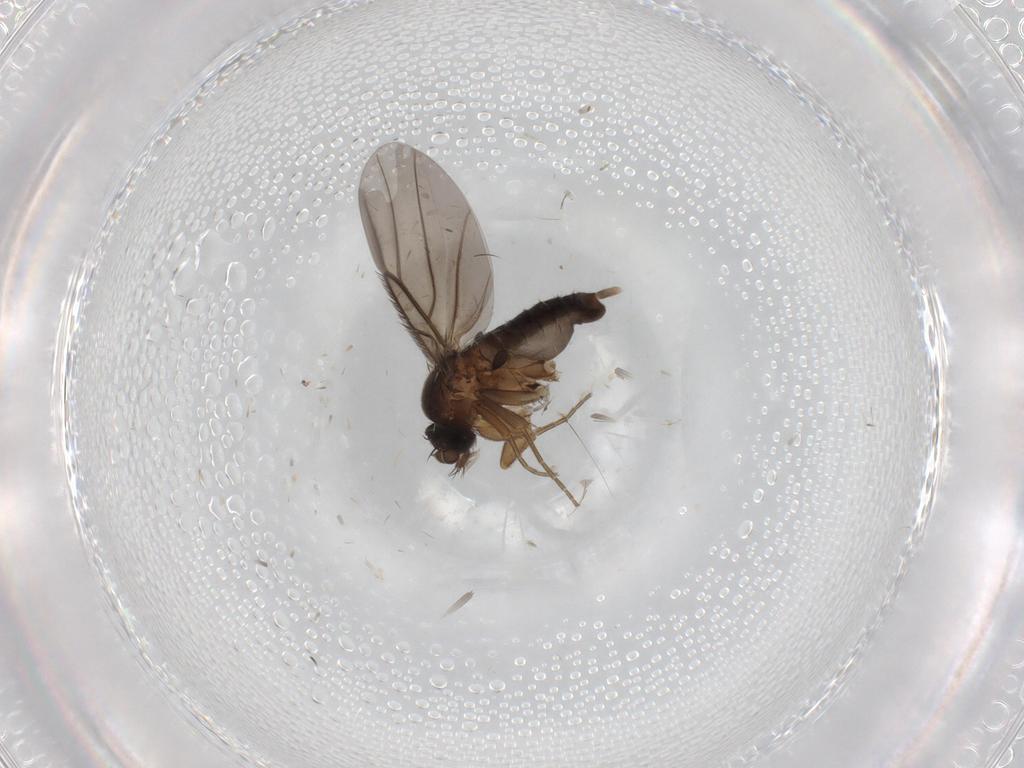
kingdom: Animalia
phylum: Arthropoda
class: Insecta
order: Diptera
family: Cecidomyiidae
